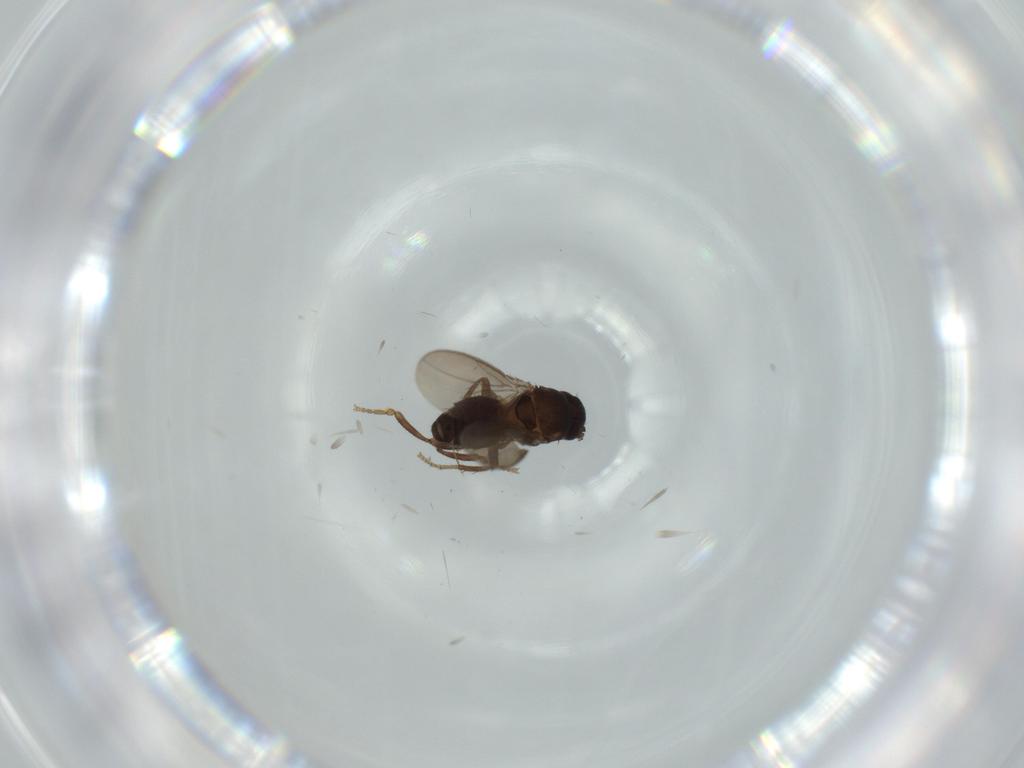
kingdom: Animalia
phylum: Arthropoda
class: Insecta
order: Diptera
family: Sphaeroceridae
